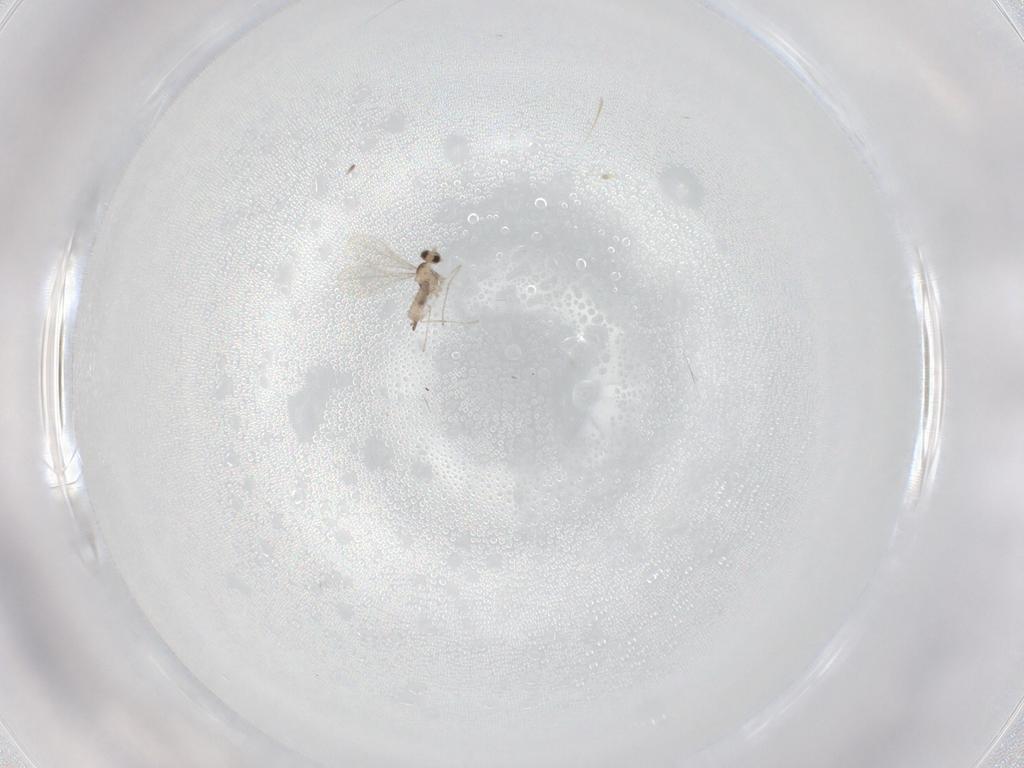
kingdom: Animalia
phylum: Arthropoda
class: Insecta
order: Diptera
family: Cecidomyiidae
